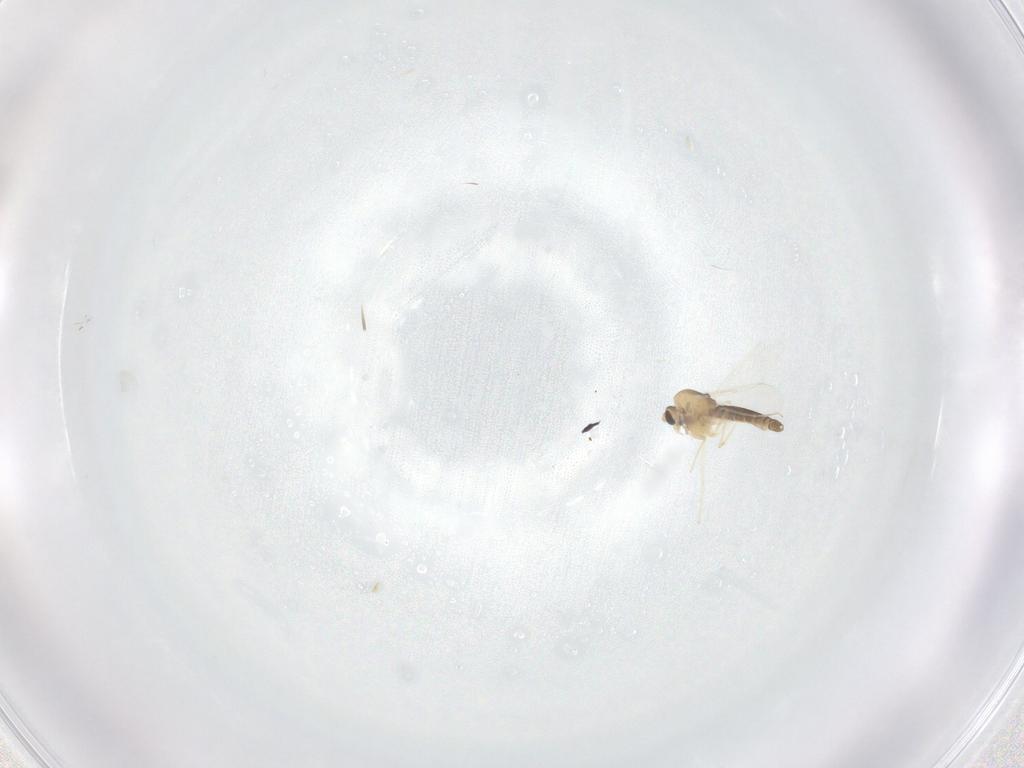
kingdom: Animalia
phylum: Arthropoda
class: Insecta
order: Diptera
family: Chironomidae
